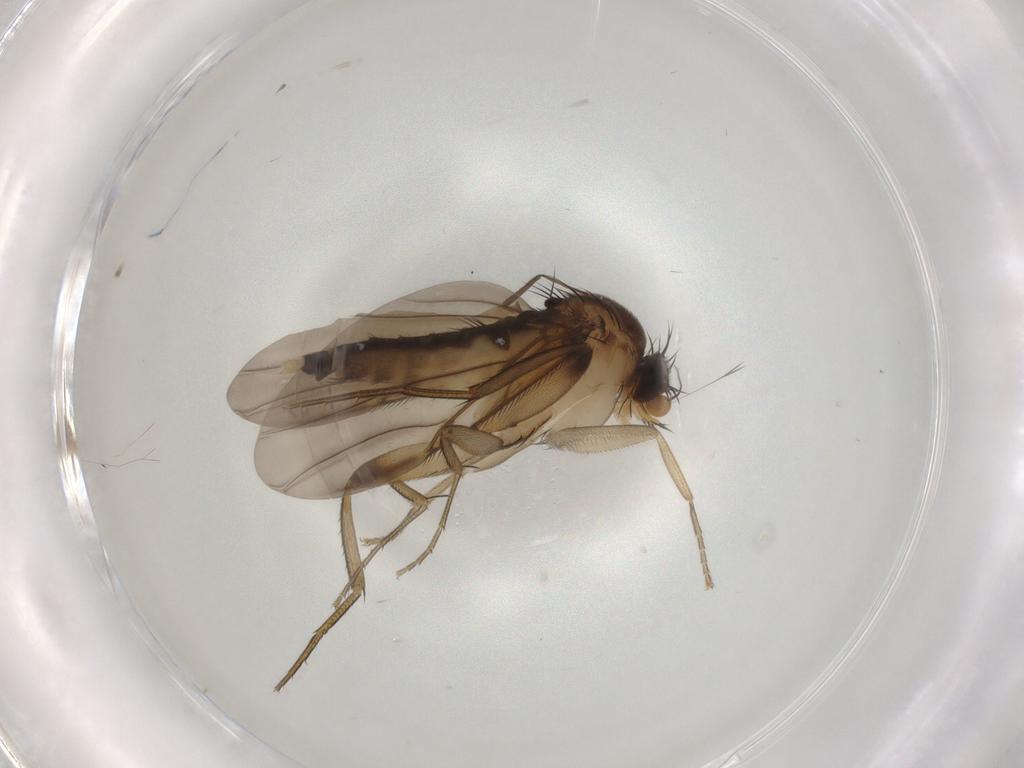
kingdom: Animalia
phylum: Arthropoda
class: Insecta
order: Diptera
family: Phoridae
